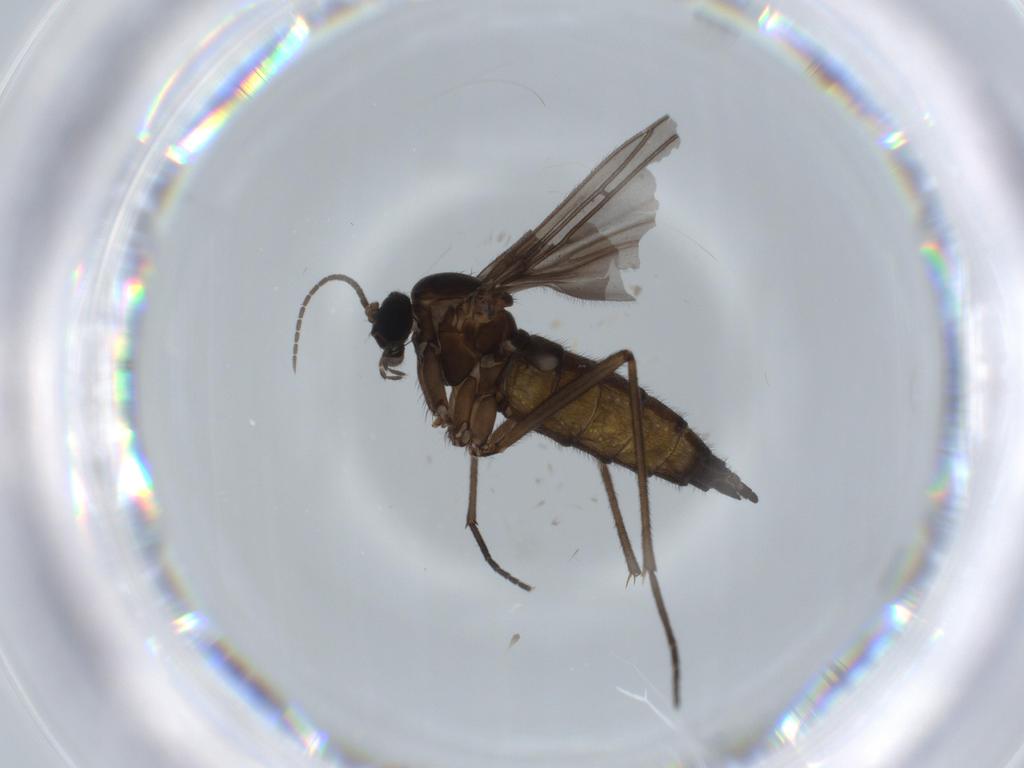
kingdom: Animalia
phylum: Arthropoda
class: Insecta
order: Diptera
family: Sciaridae
